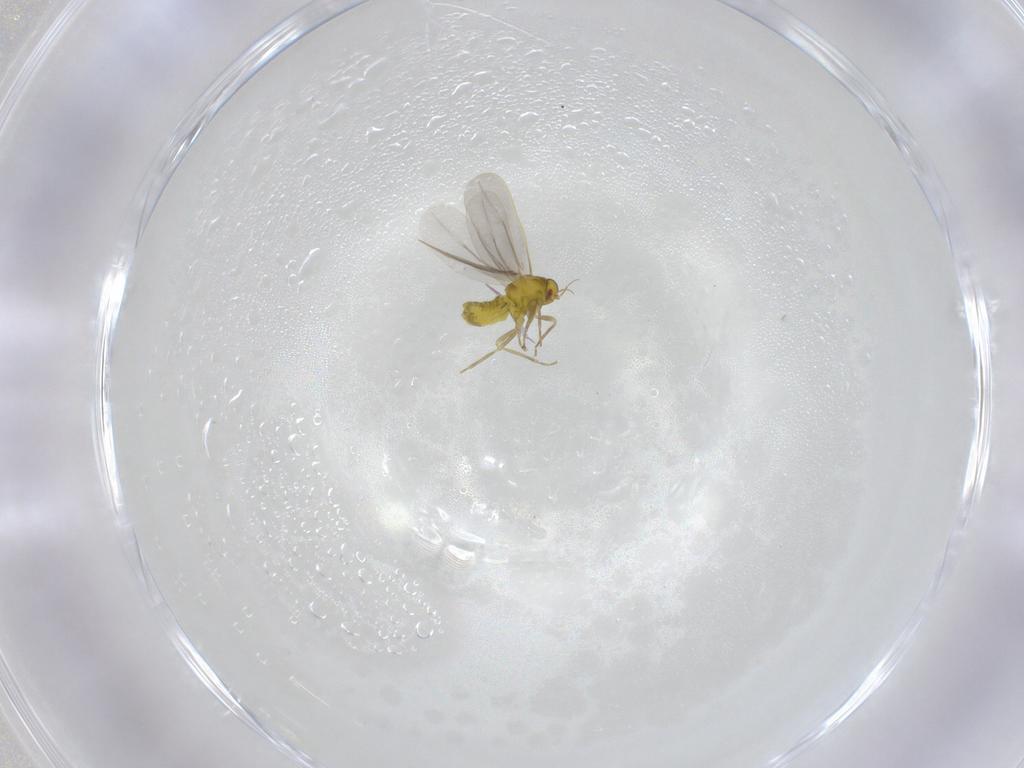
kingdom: Animalia
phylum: Arthropoda
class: Insecta
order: Hemiptera
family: Aleyrodidae
